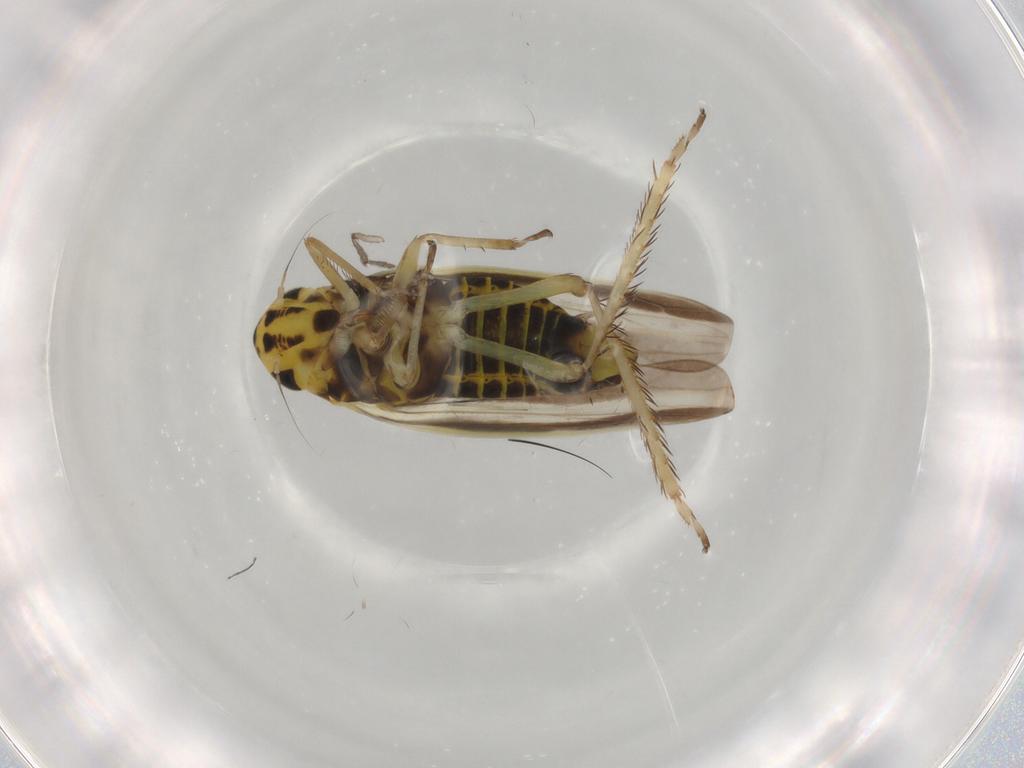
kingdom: Animalia
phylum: Arthropoda
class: Insecta
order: Hemiptera
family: Cicadellidae
